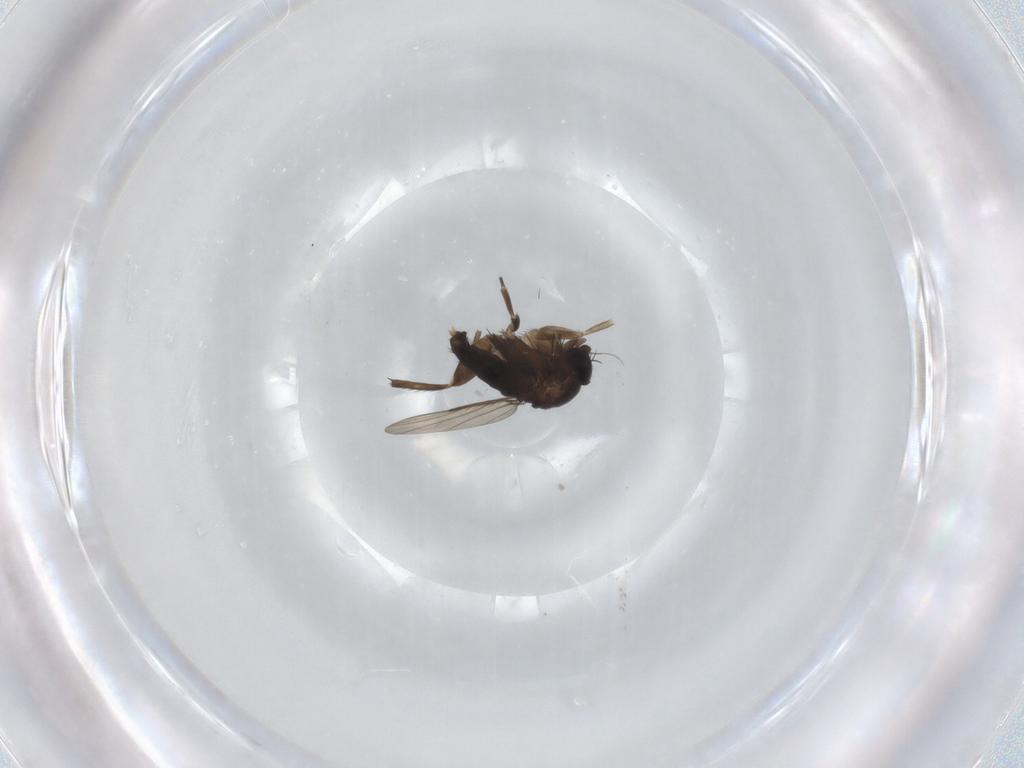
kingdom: Animalia
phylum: Arthropoda
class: Insecta
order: Diptera
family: Phoridae
